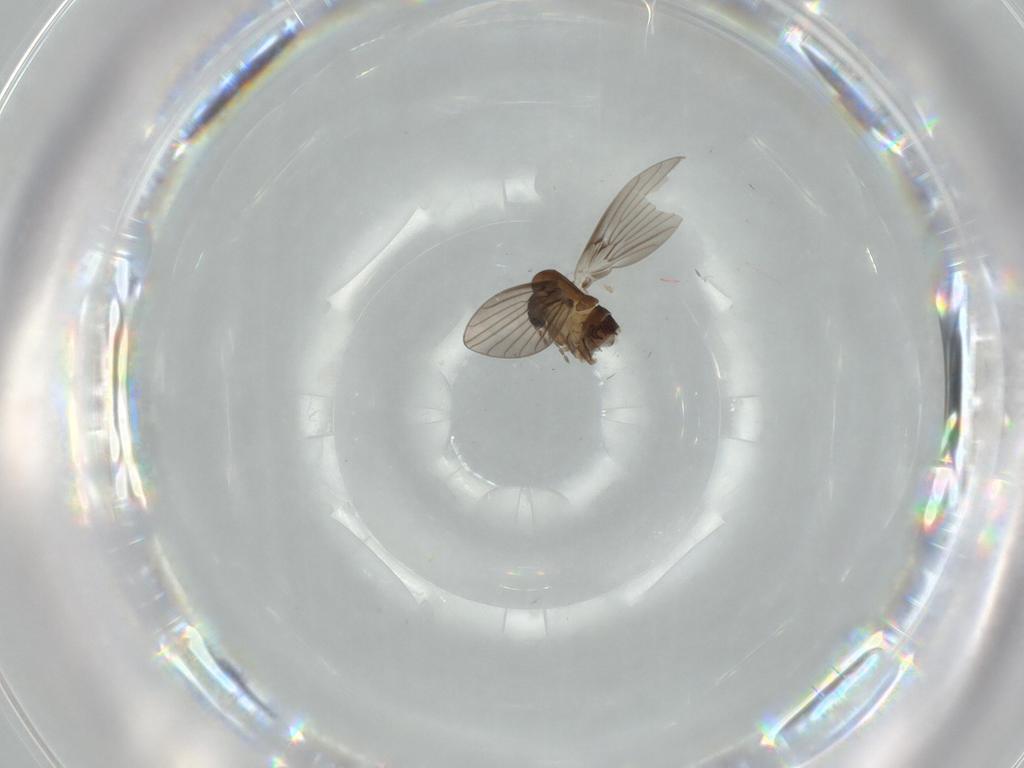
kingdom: Animalia
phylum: Arthropoda
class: Insecta
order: Diptera
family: Psychodidae
